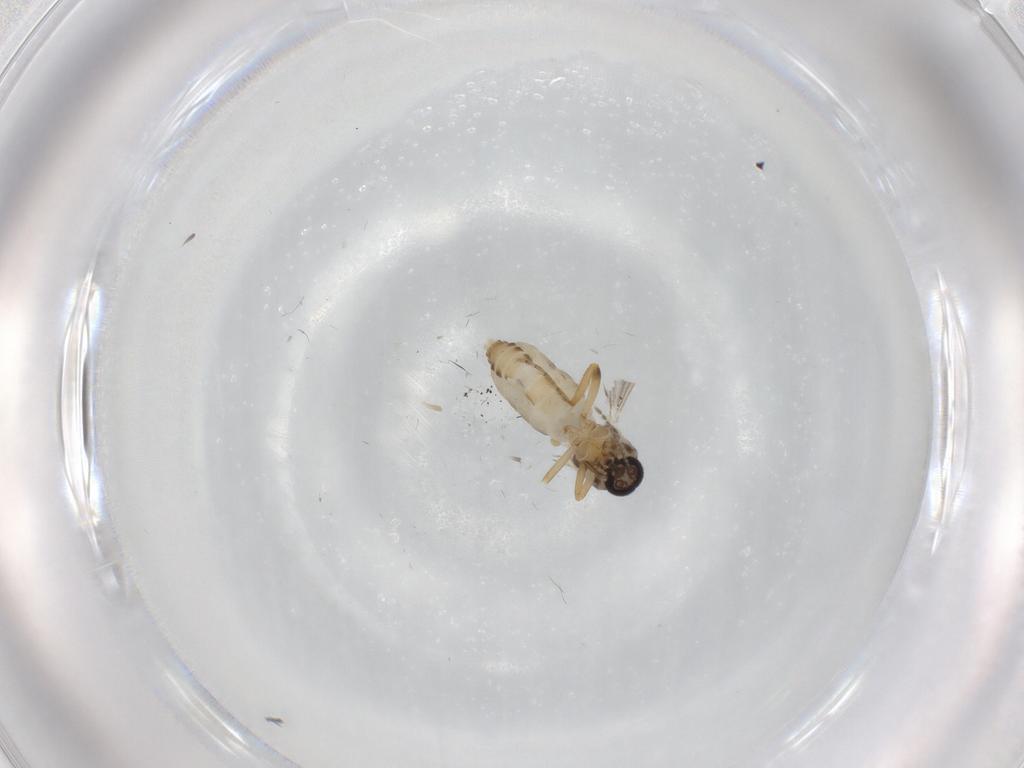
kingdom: Animalia
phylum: Arthropoda
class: Insecta
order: Diptera
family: Ceratopogonidae
